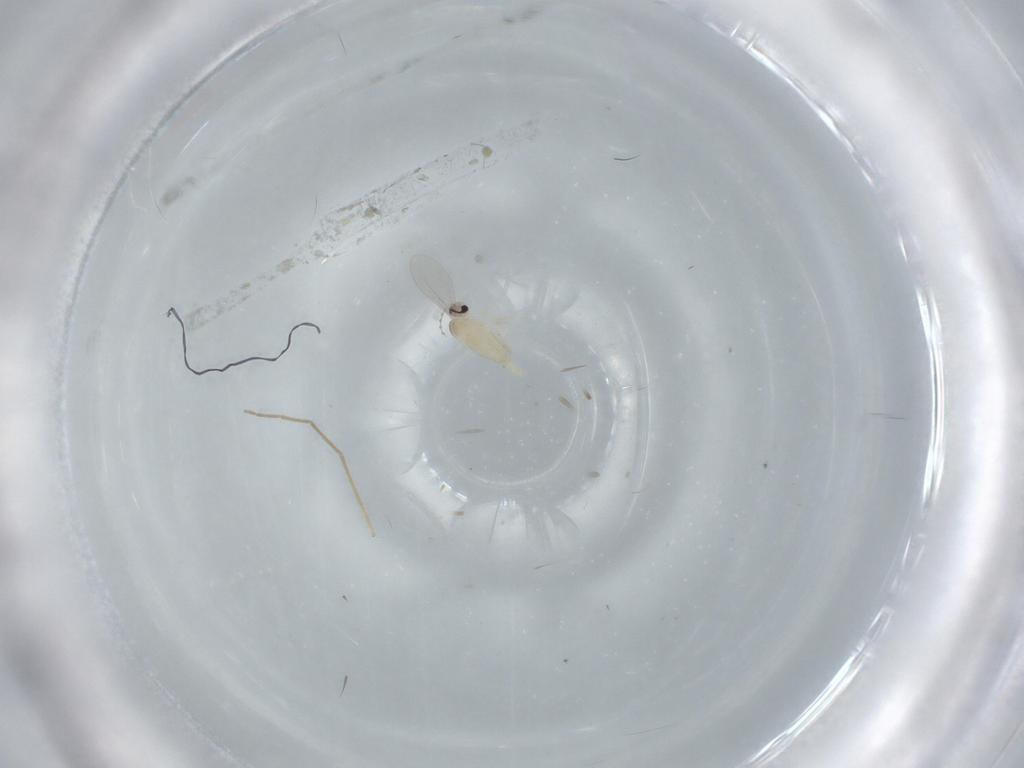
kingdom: Animalia
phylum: Arthropoda
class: Insecta
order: Diptera
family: Cecidomyiidae
